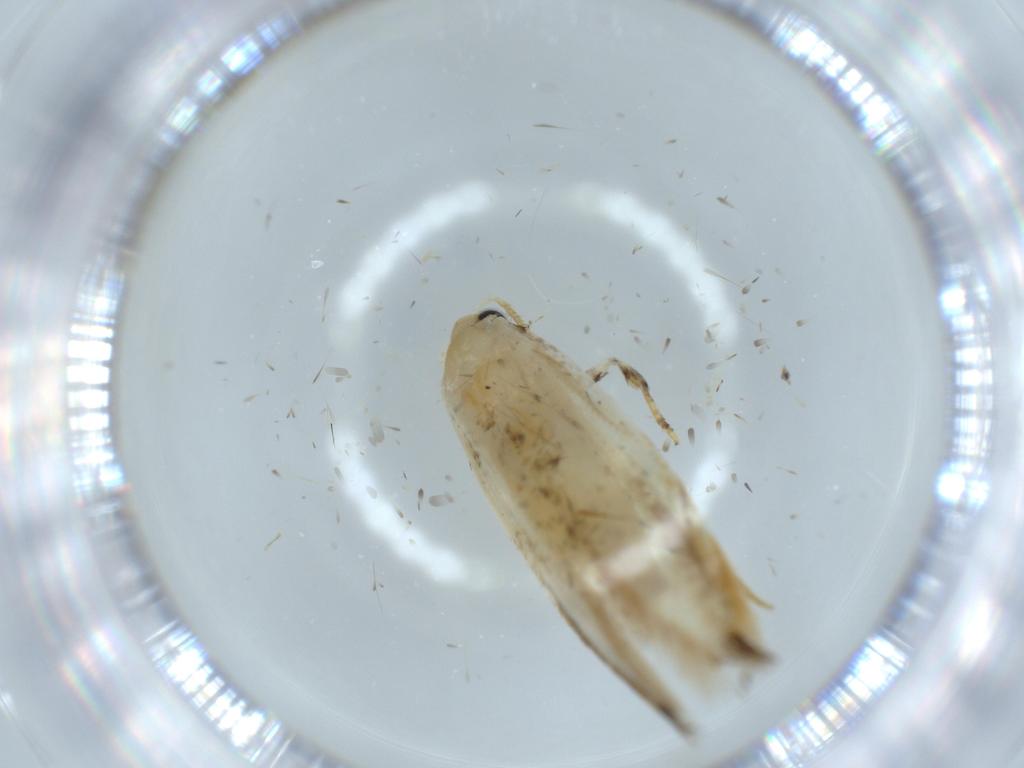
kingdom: Animalia
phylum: Arthropoda
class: Insecta
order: Lepidoptera
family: Tineidae
